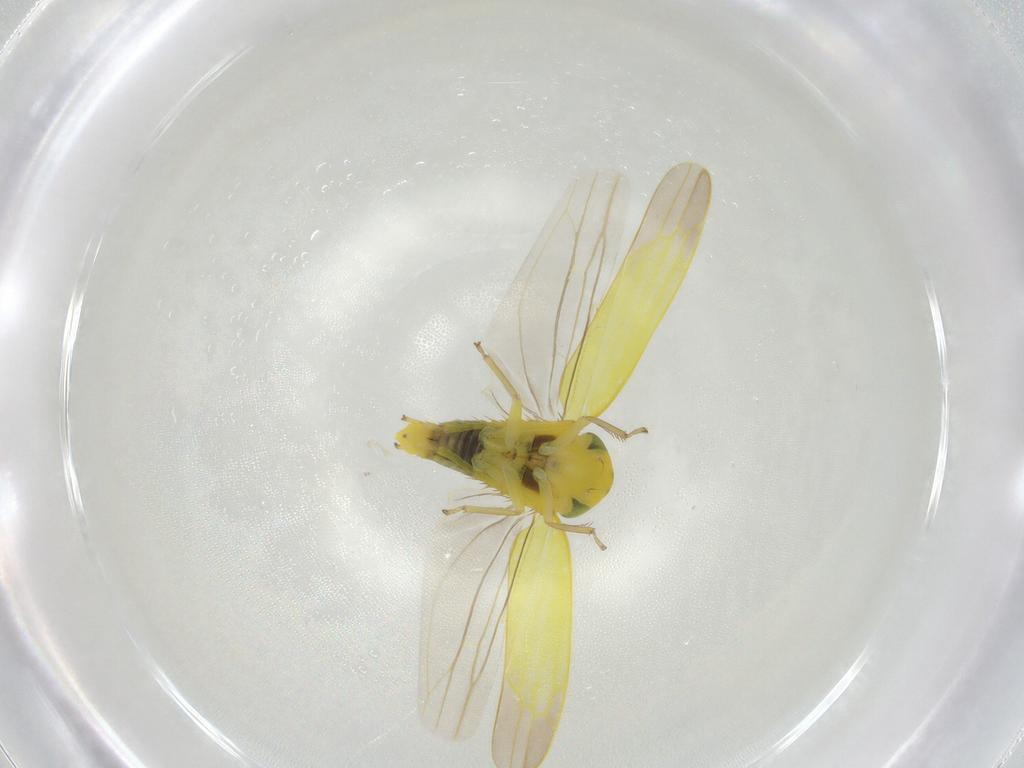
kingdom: Animalia
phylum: Arthropoda
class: Insecta
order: Hemiptera
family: Cicadellidae
